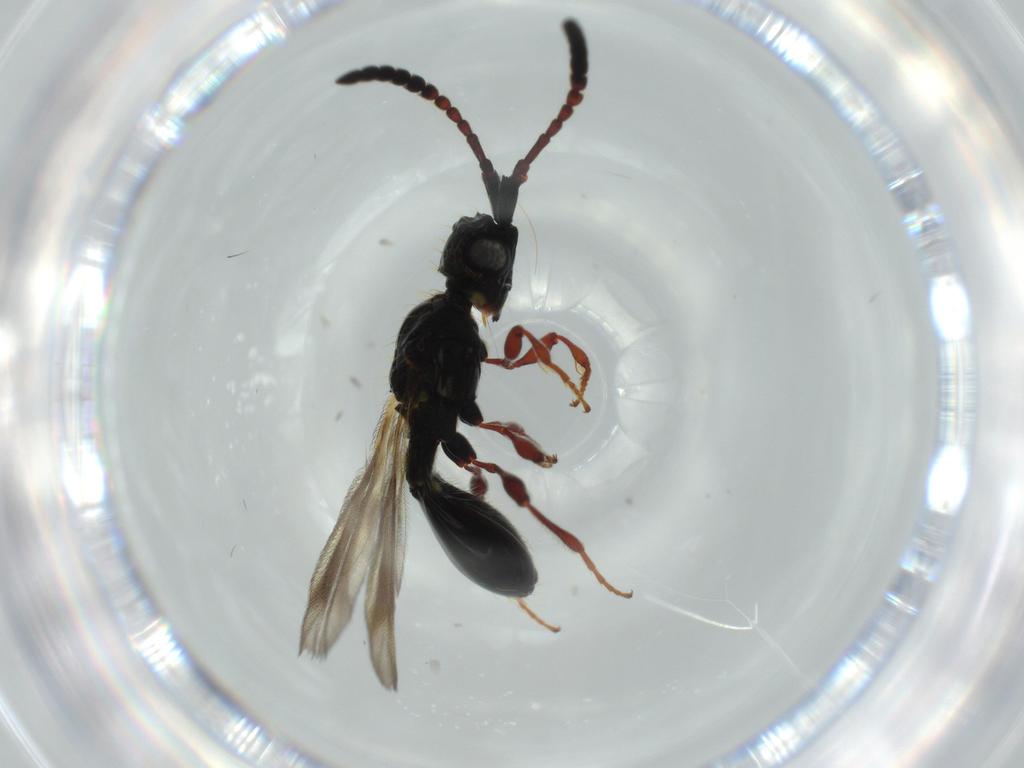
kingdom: Animalia
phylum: Arthropoda
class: Insecta
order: Hymenoptera
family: Diapriidae
